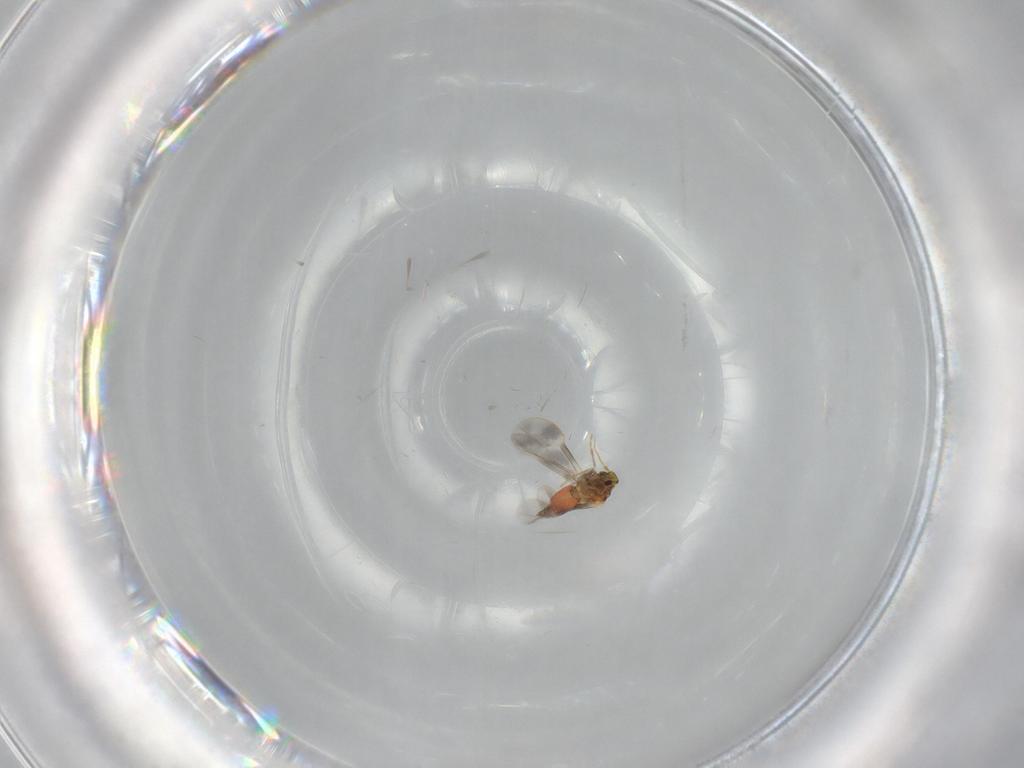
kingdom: Animalia
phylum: Arthropoda
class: Insecta
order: Hemiptera
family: Aleyrodidae
